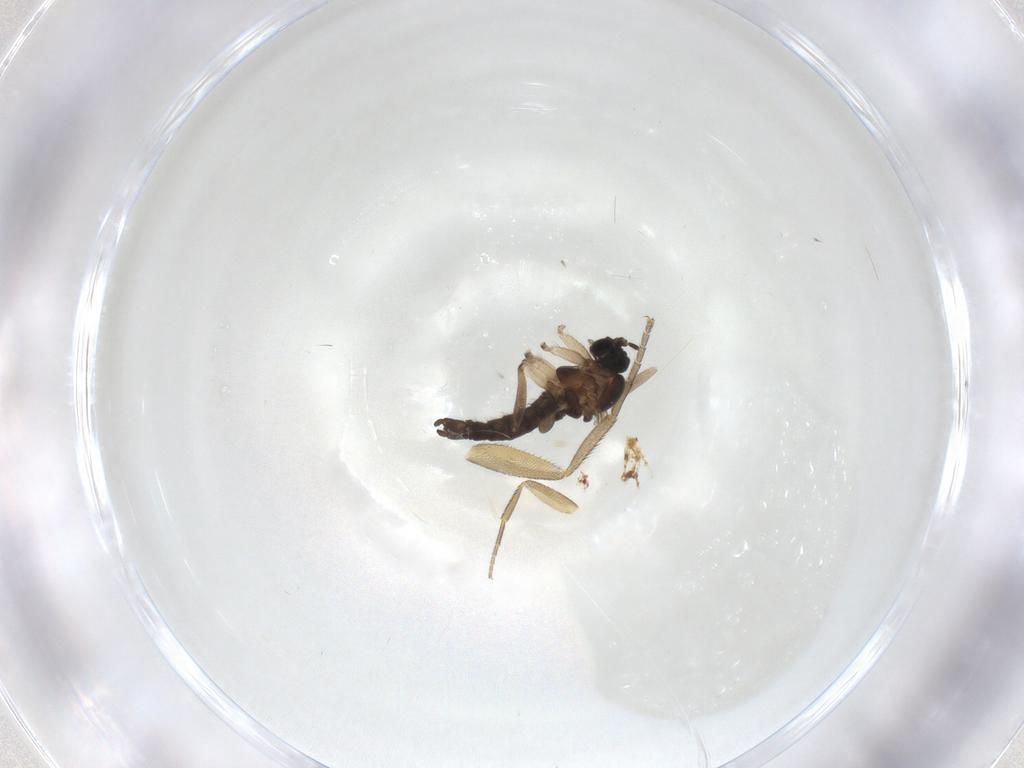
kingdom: Animalia
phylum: Arthropoda
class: Insecta
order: Diptera
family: Sciaridae
